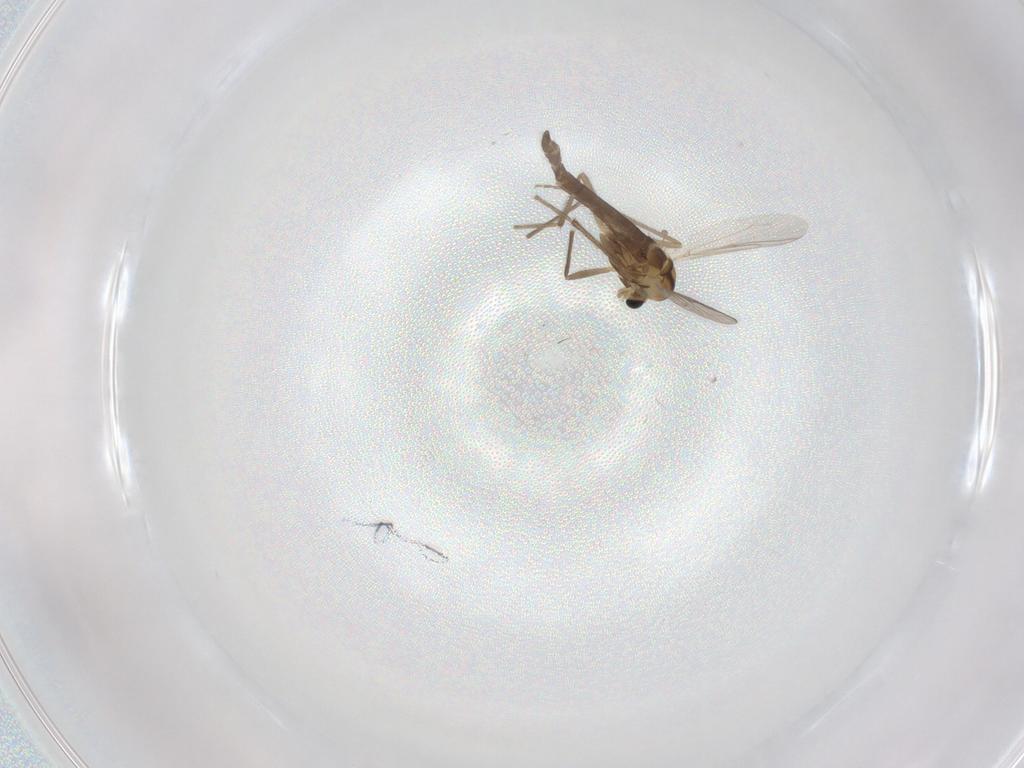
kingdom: Animalia
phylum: Arthropoda
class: Insecta
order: Diptera
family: Chironomidae
